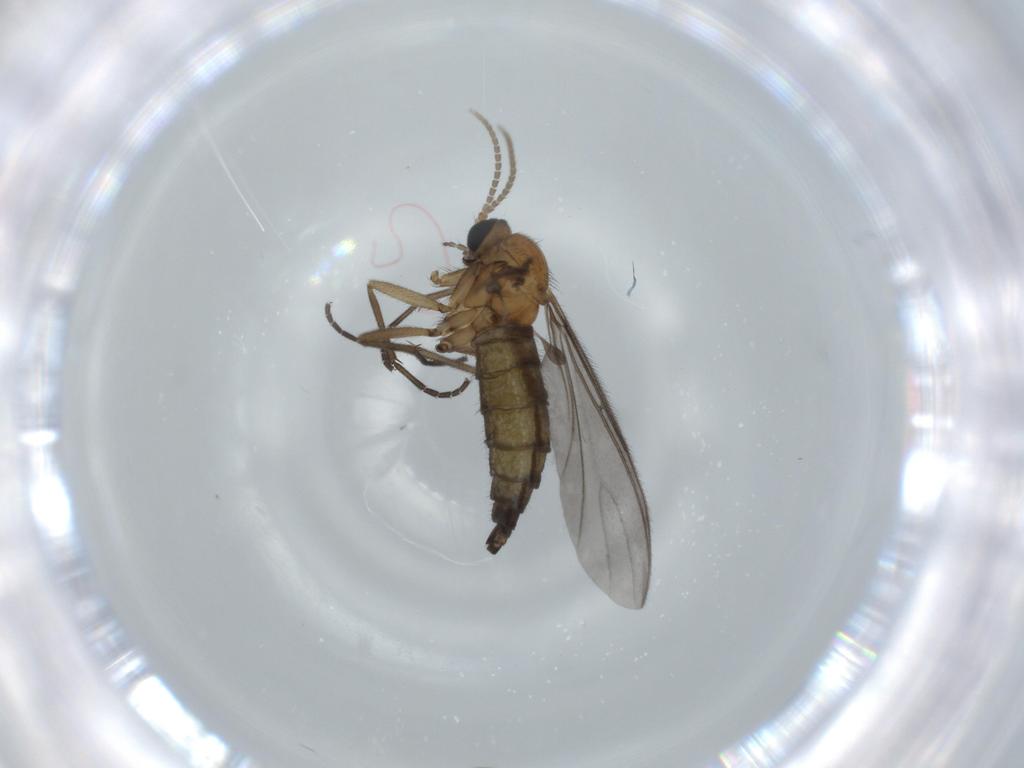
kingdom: Animalia
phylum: Arthropoda
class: Insecta
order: Diptera
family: Sciaridae
